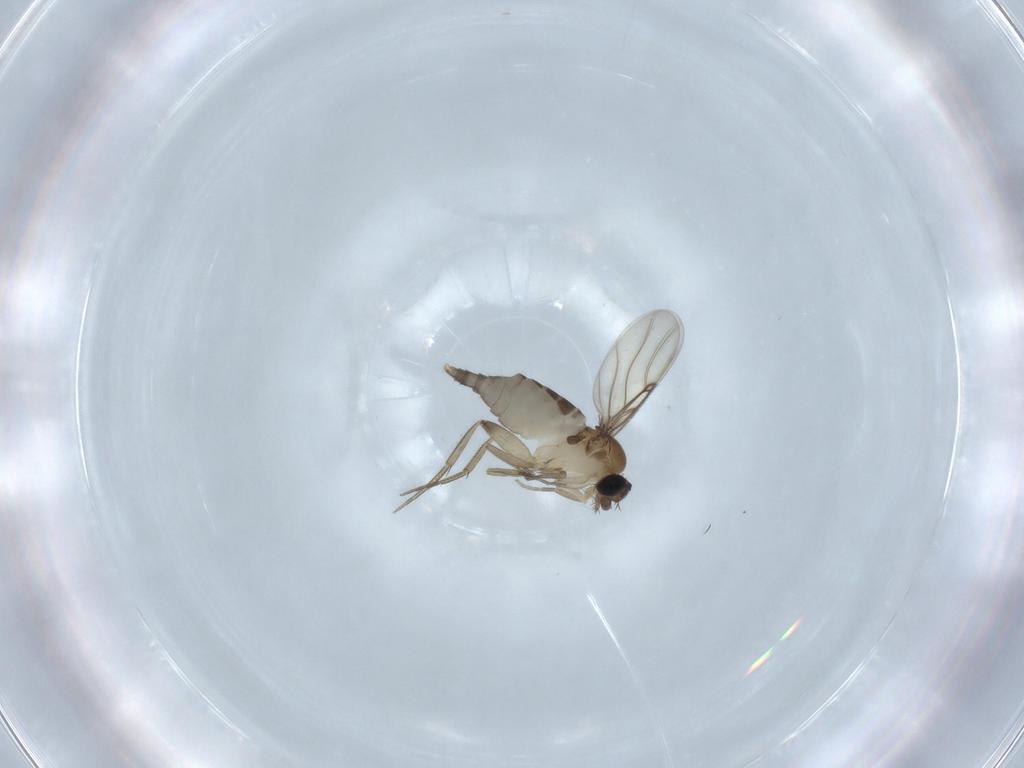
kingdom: Animalia
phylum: Arthropoda
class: Insecta
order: Diptera
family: Phoridae
